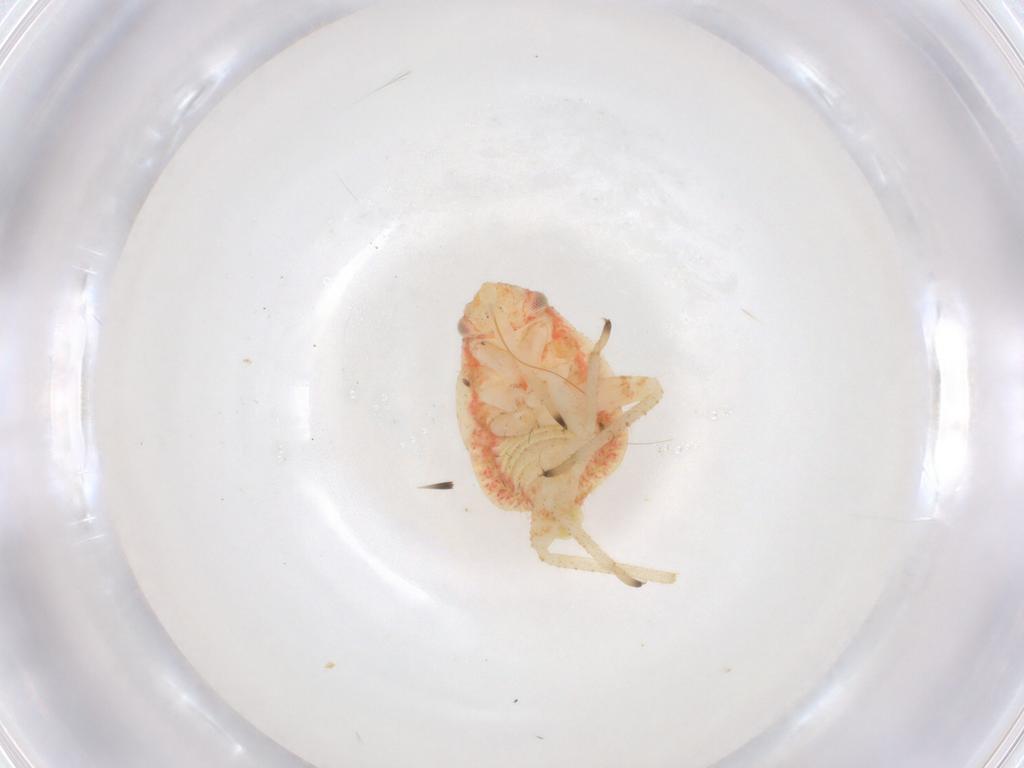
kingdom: Animalia
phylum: Arthropoda
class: Insecta
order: Hemiptera
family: Miridae
